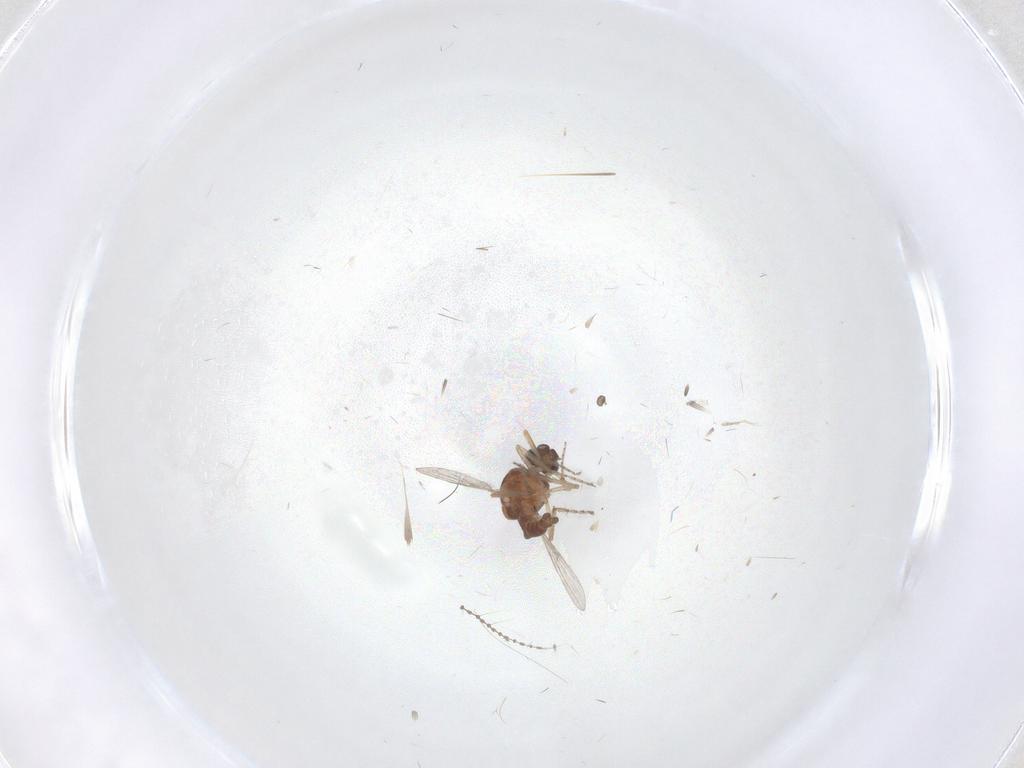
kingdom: Animalia
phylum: Arthropoda
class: Insecta
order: Diptera
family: Ceratopogonidae
